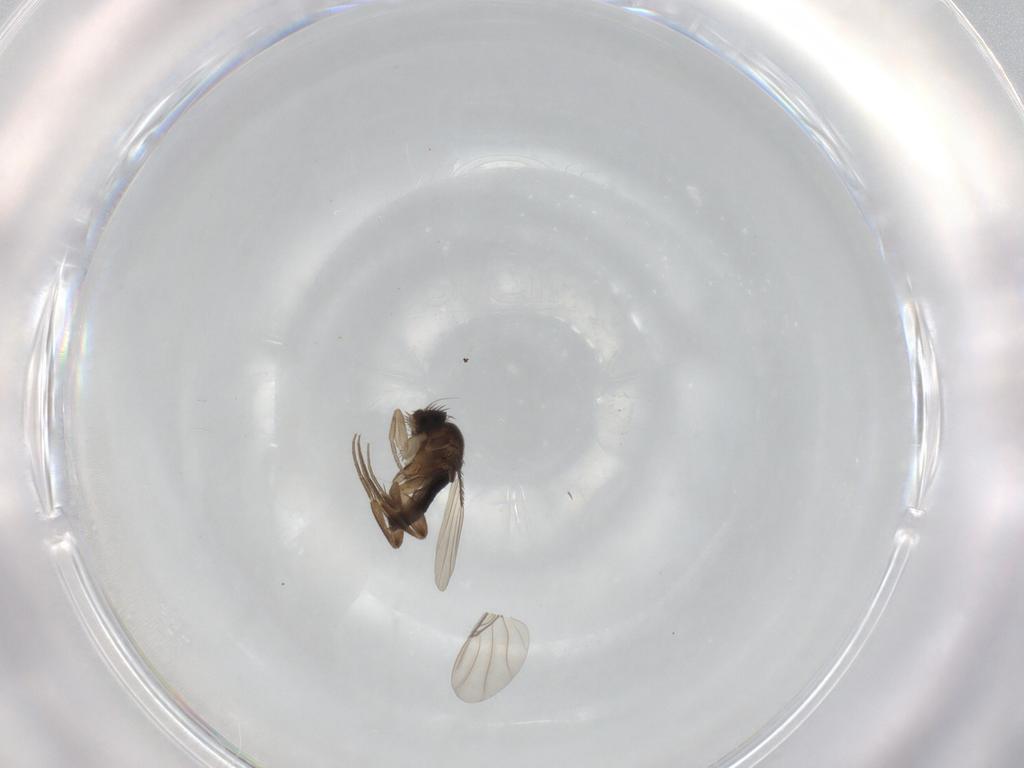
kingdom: Animalia
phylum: Arthropoda
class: Insecta
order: Diptera
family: Phoridae
